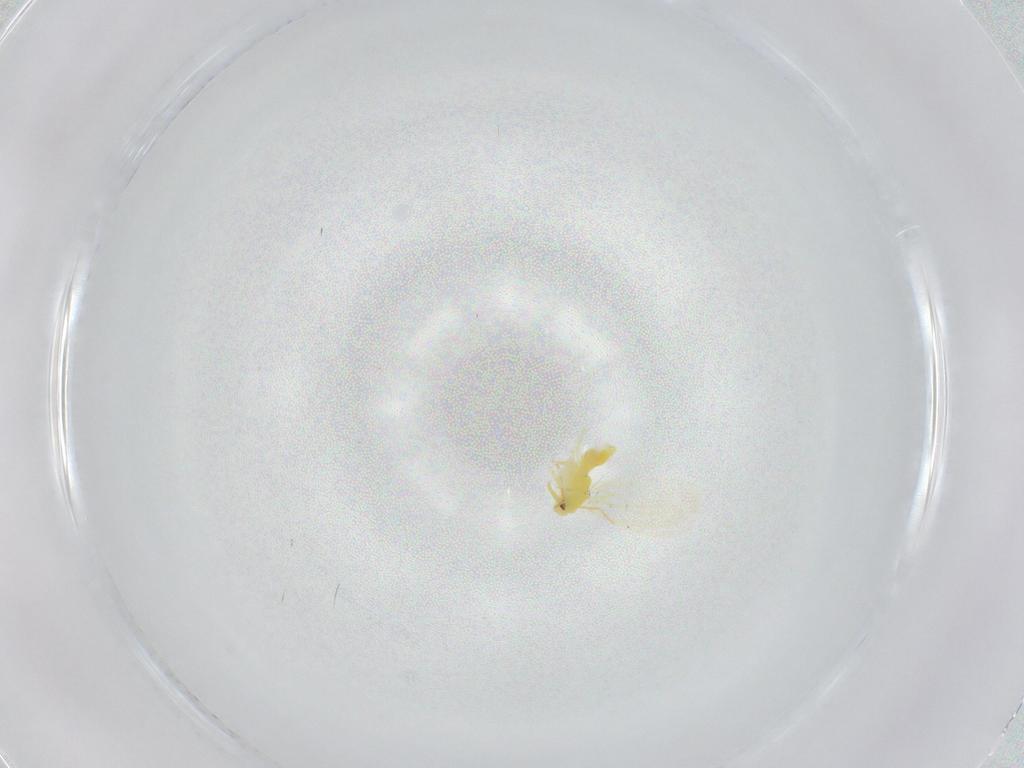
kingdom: Animalia
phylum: Arthropoda
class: Insecta
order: Hemiptera
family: Aleyrodidae
